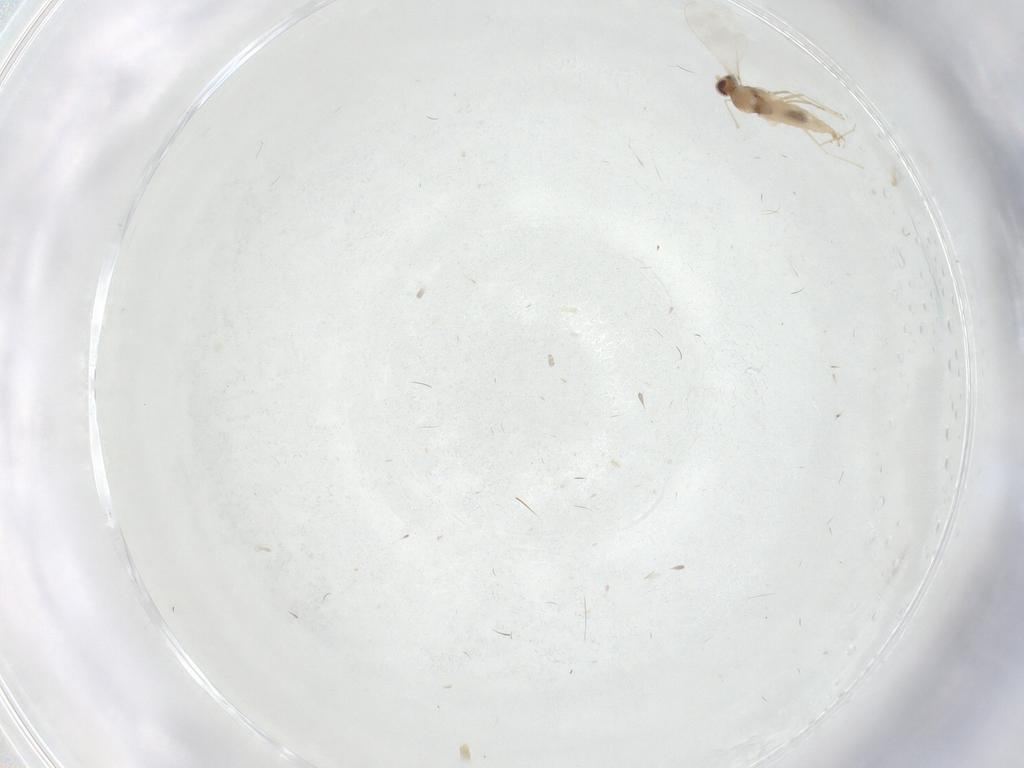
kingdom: Animalia
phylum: Arthropoda
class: Insecta
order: Diptera
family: Cecidomyiidae
